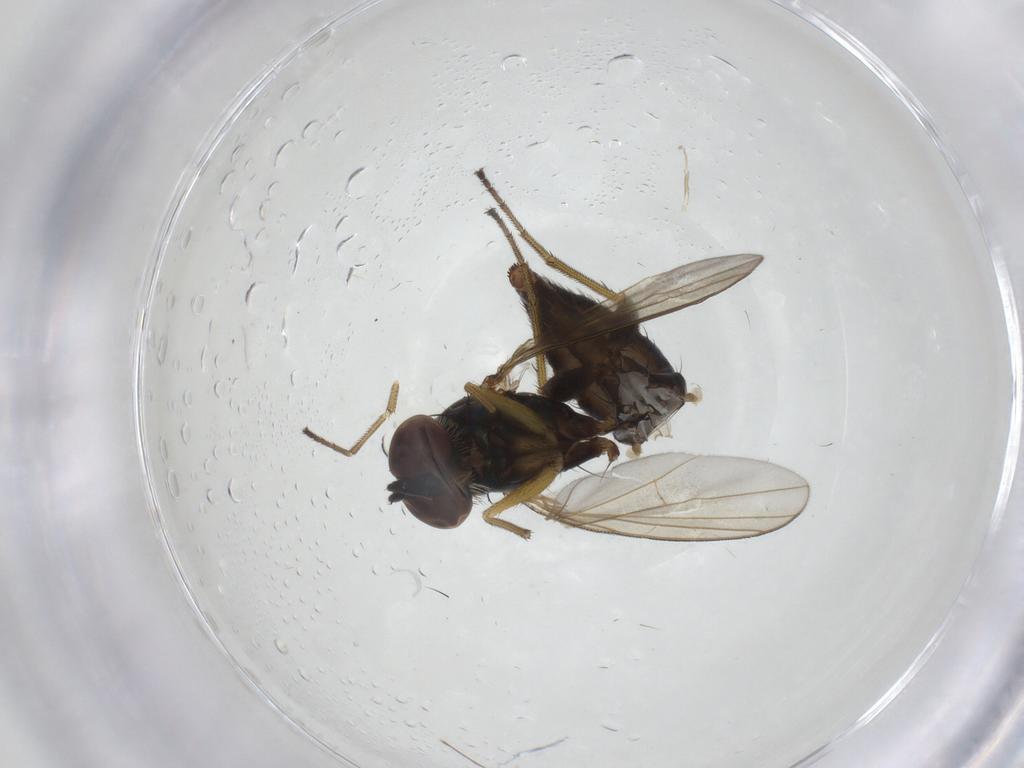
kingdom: Animalia
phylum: Arthropoda
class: Insecta
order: Diptera
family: Dolichopodidae
